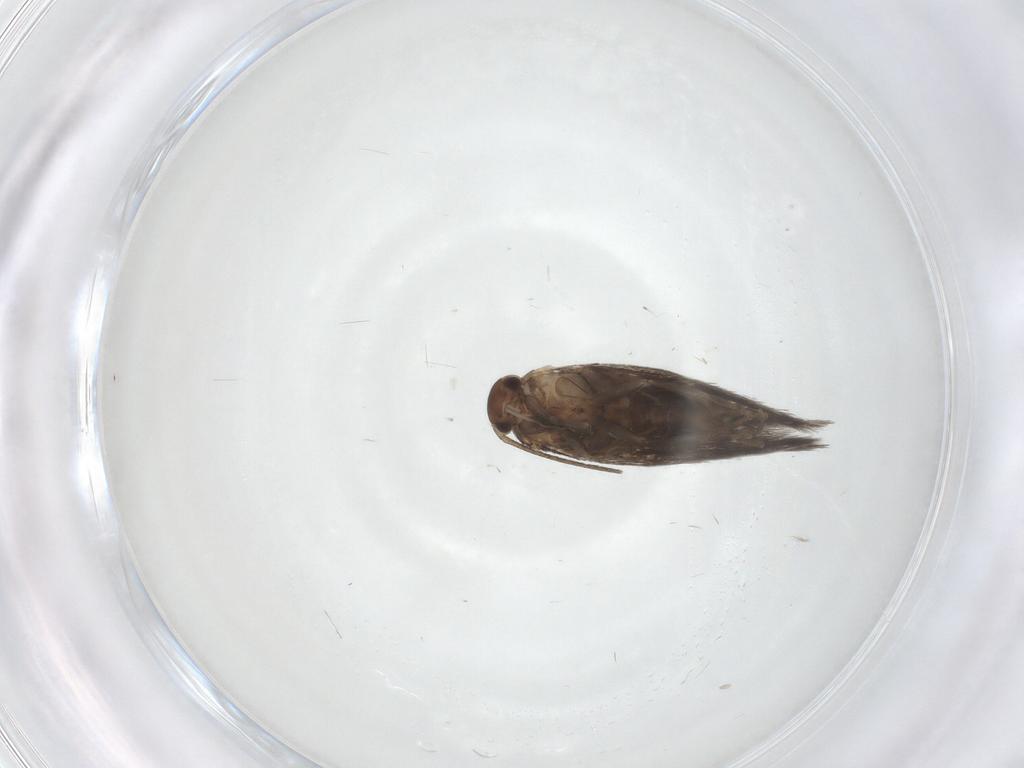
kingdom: Animalia
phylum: Arthropoda
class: Insecta
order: Lepidoptera
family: Elachistidae
